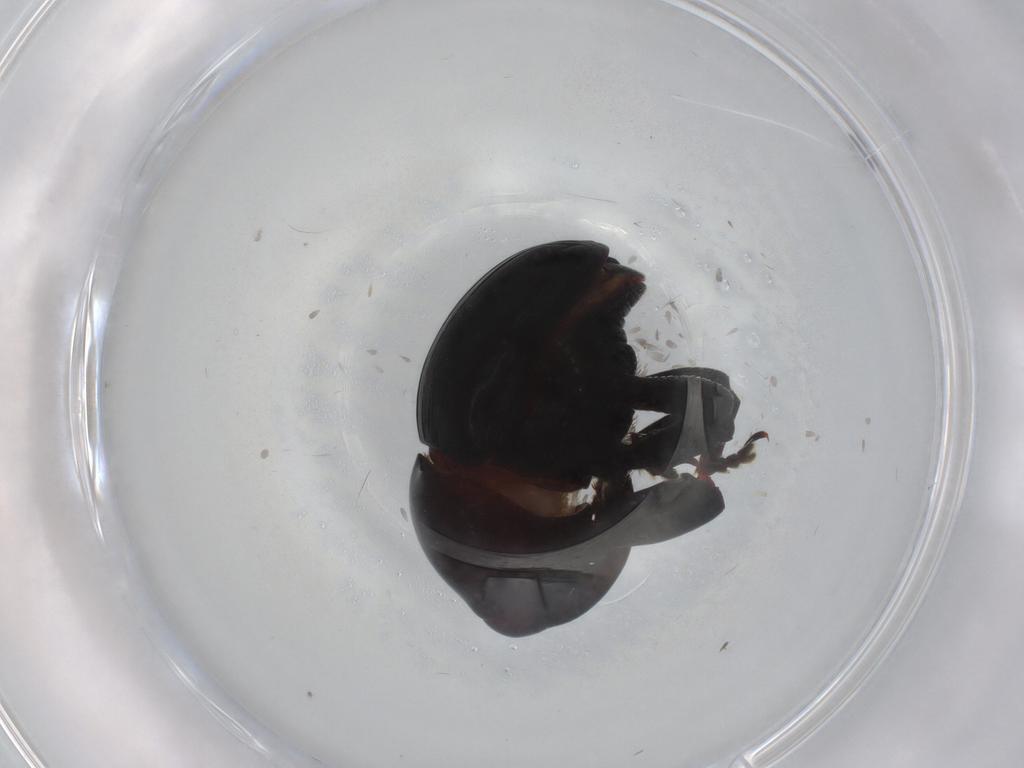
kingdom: Animalia
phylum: Arthropoda
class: Insecta
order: Coleoptera
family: Curculionidae
